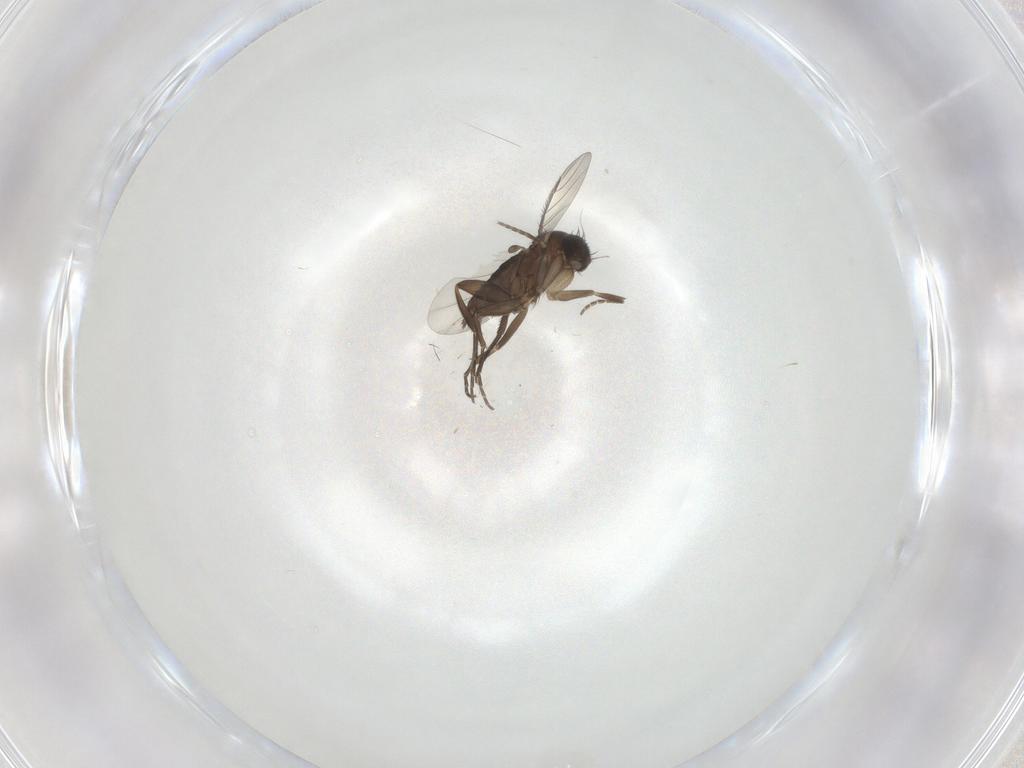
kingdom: Animalia
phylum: Arthropoda
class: Insecta
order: Diptera
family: Phoridae
